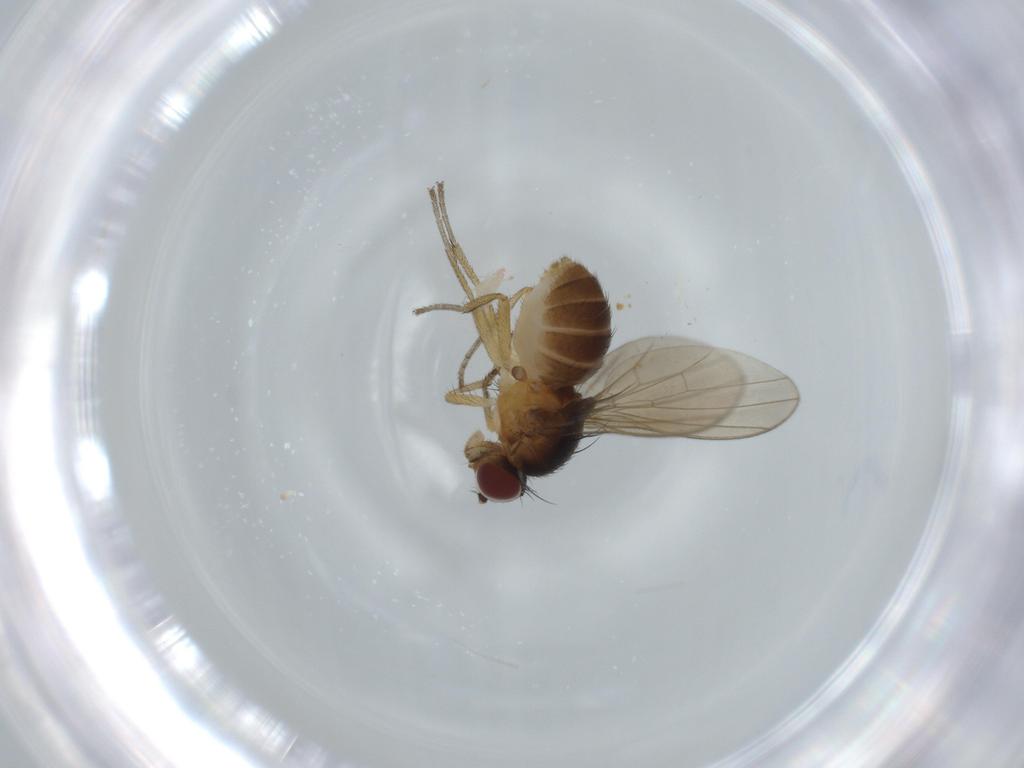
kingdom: Animalia
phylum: Arthropoda
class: Insecta
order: Diptera
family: Lauxaniidae
